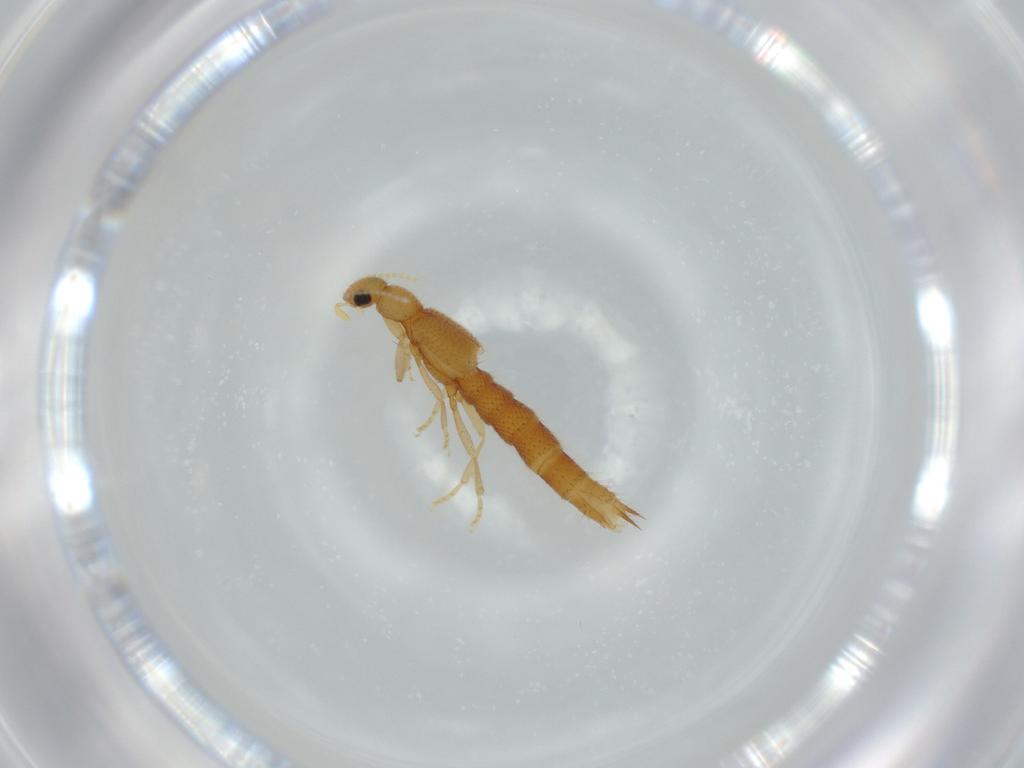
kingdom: Animalia
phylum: Arthropoda
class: Insecta
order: Coleoptera
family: Staphylinidae
